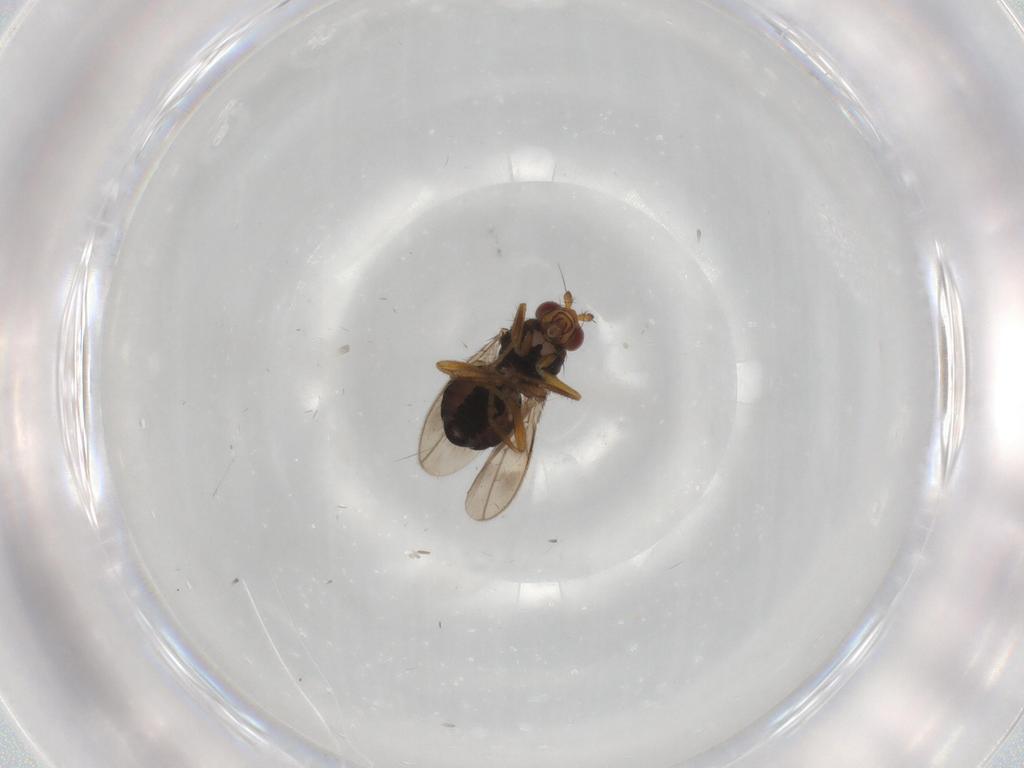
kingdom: Animalia
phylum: Arthropoda
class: Insecta
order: Diptera
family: Sphaeroceridae
